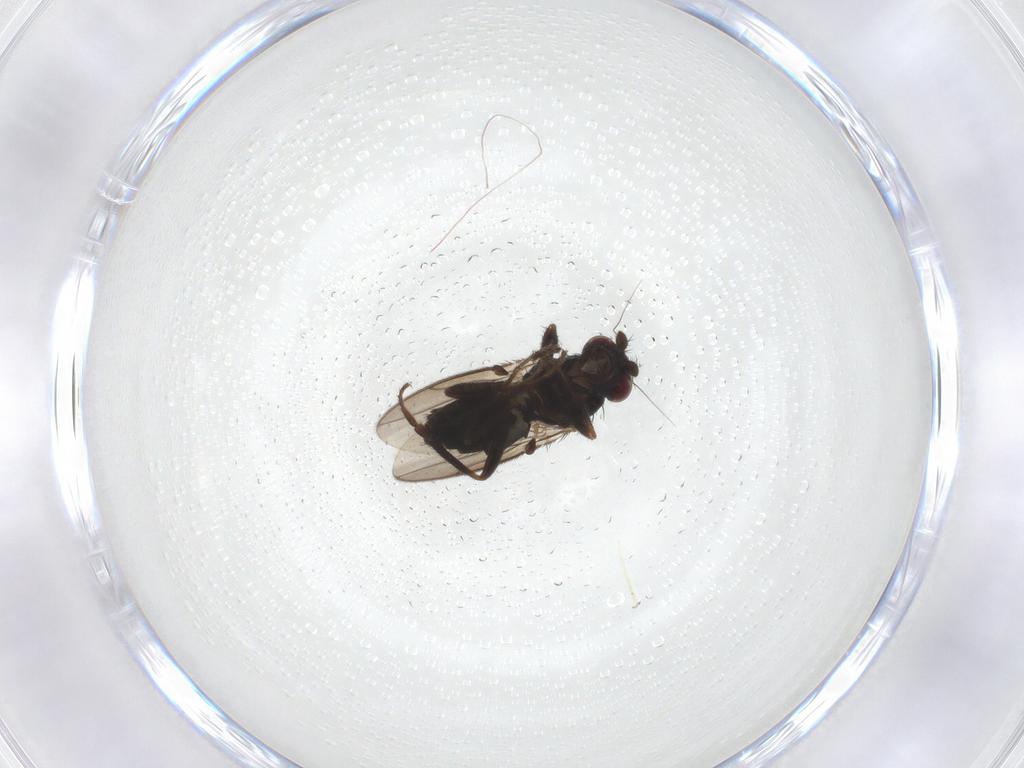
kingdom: Animalia
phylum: Arthropoda
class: Insecta
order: Diptera
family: Sphaeroceridae
